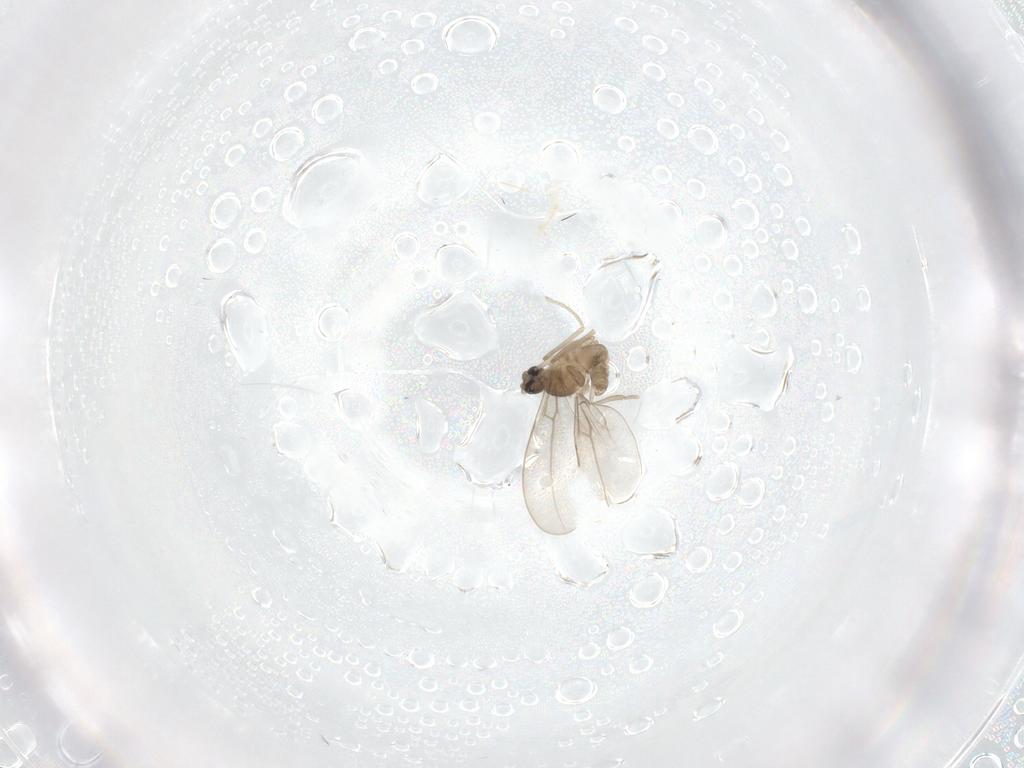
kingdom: Animalia
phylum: Arthropoda
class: Insecta
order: Diptera
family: Cecidomyiidae
